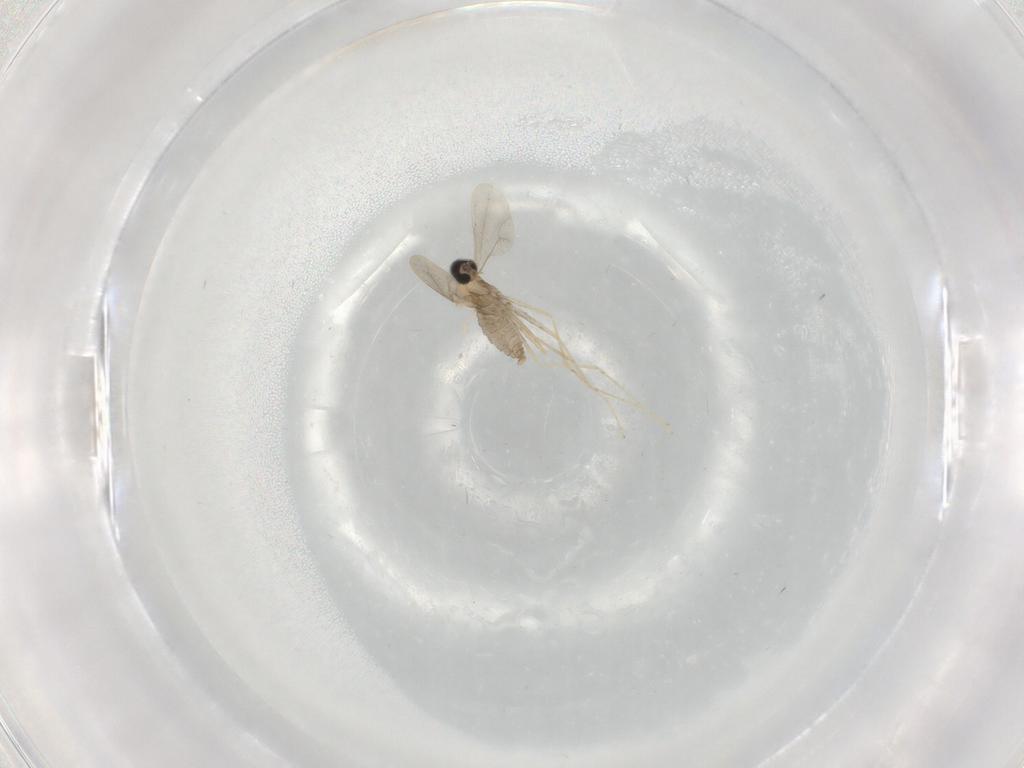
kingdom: Animalia
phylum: Arthropoda
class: Insecta
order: Diptera
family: Cecidomyiidae
